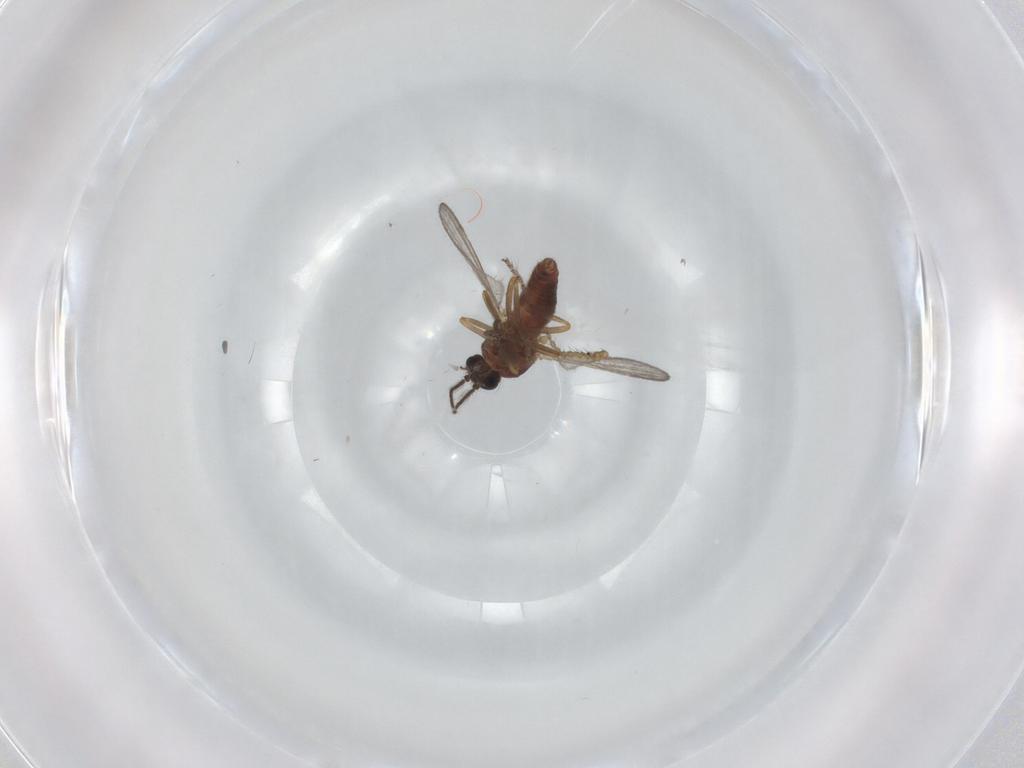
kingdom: Animalia
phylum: Arthropoda
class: Insecta
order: Diptera
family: Ceratopogonidae
